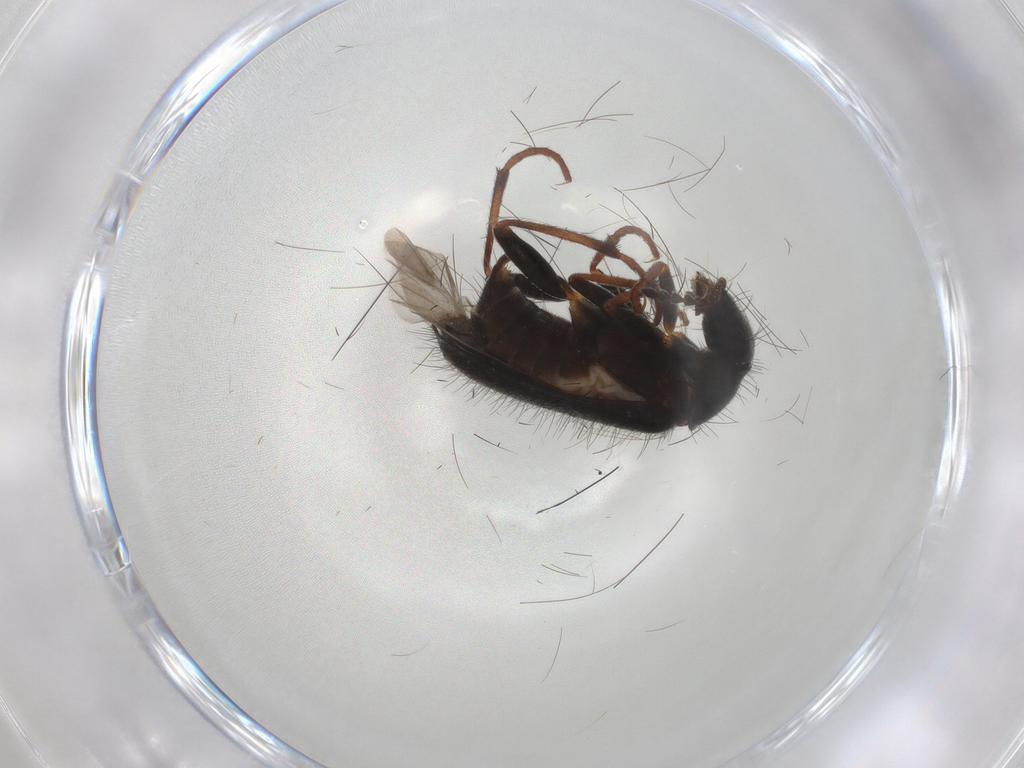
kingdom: Animalia
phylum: Arthropoda
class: Insecta
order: Coleoptera
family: Melyridae
